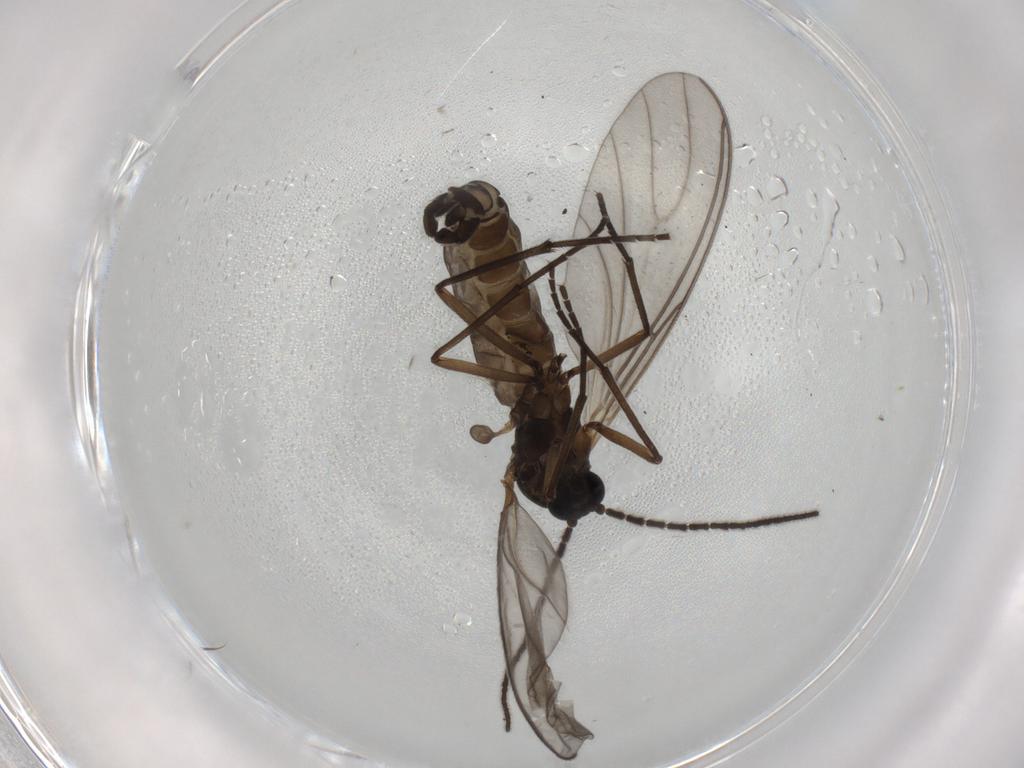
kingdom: Animalia
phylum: Arthropoda
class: Insecta
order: Diptera
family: Sciaridae
